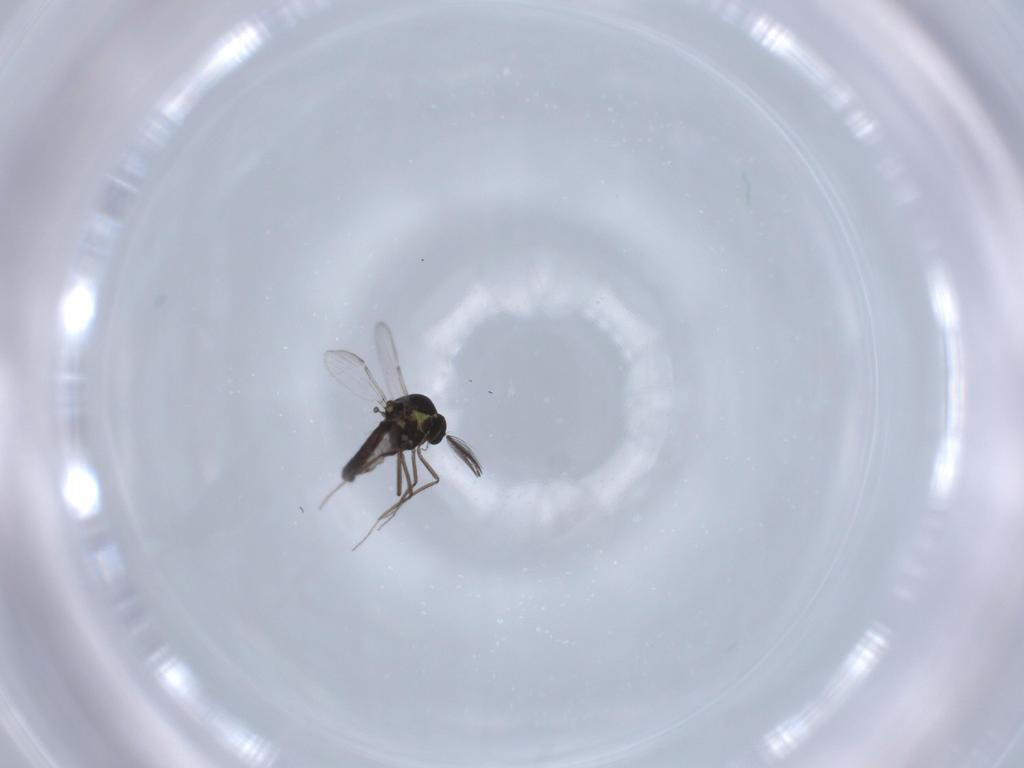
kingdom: Animalia
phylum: Arthropoda
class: Insecta
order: Diptera
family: Ceratopogonidae
